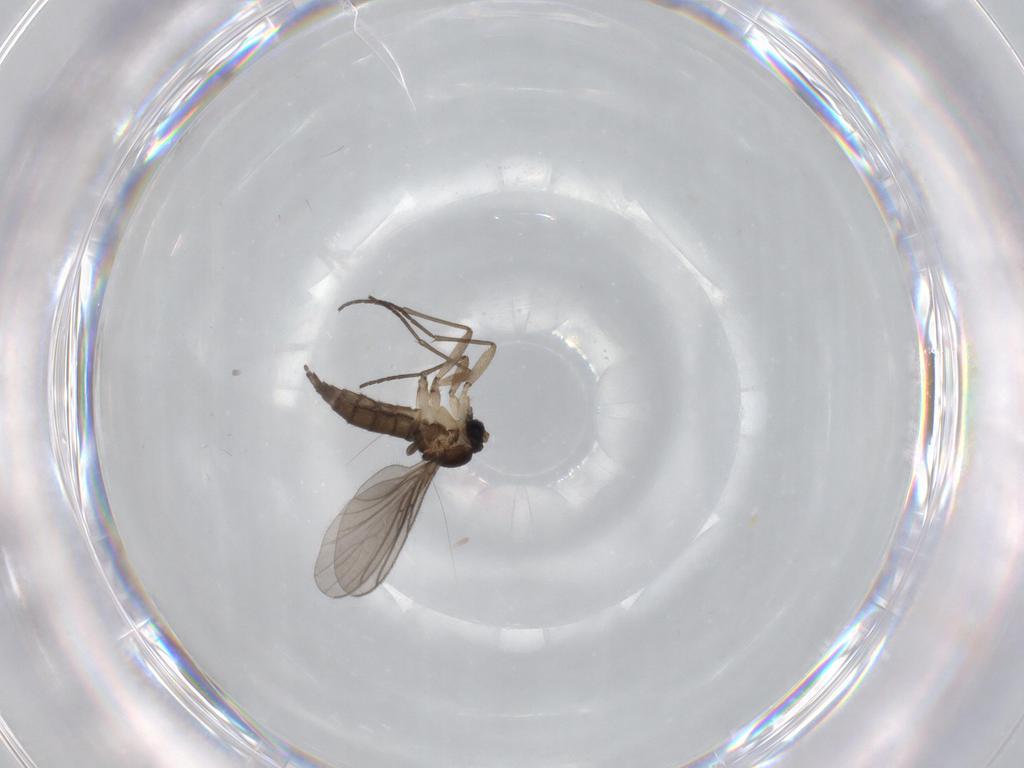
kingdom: Animalia
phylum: Arthropoda
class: Insecta
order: Diptera
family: Sciaridae
